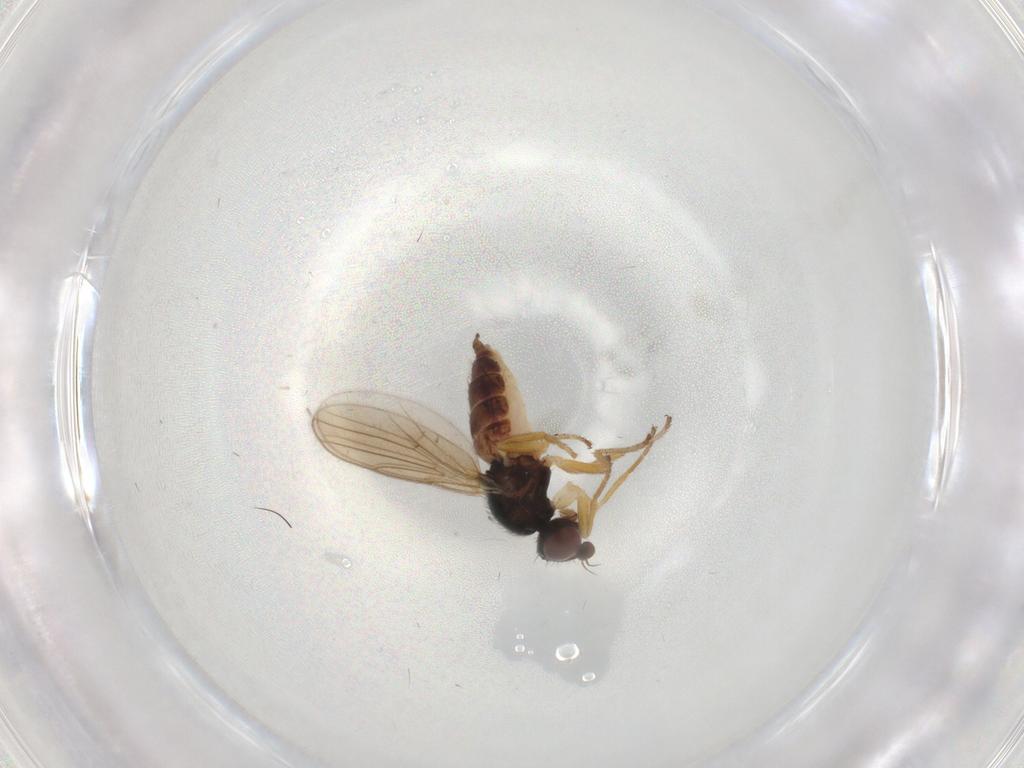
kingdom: Animalia
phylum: Arthropoda
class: Insecta
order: Diptera
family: Chloropidae
